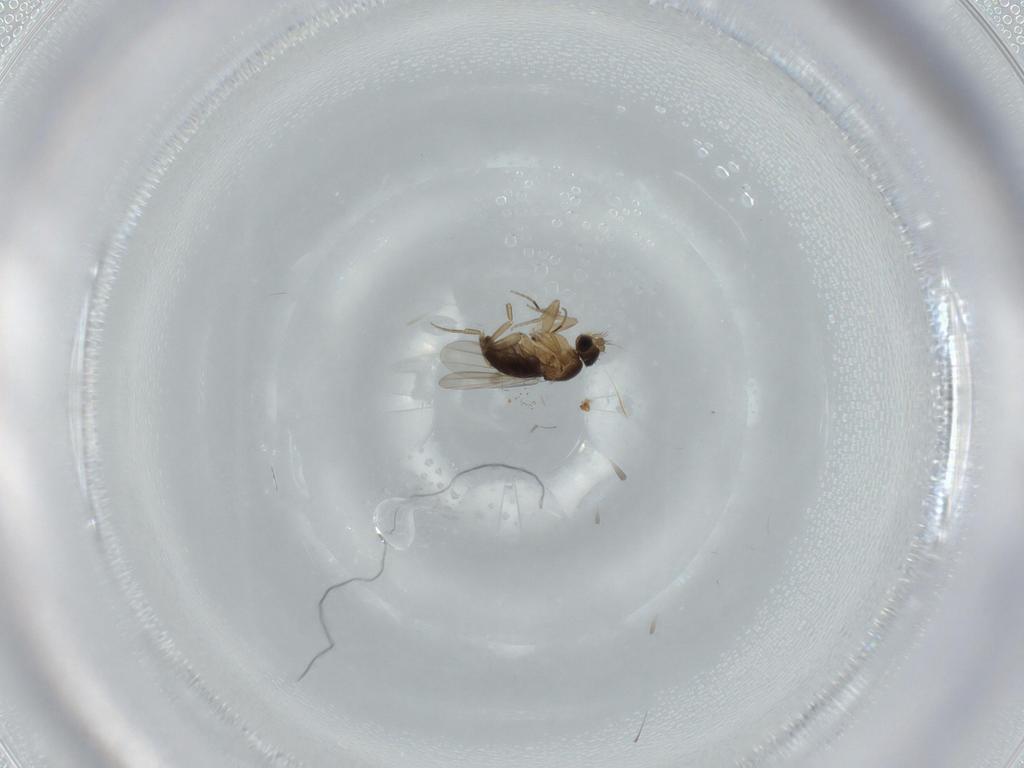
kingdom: Animalia
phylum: Arthropoda
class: Insecta
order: Diptera
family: Phoridae
